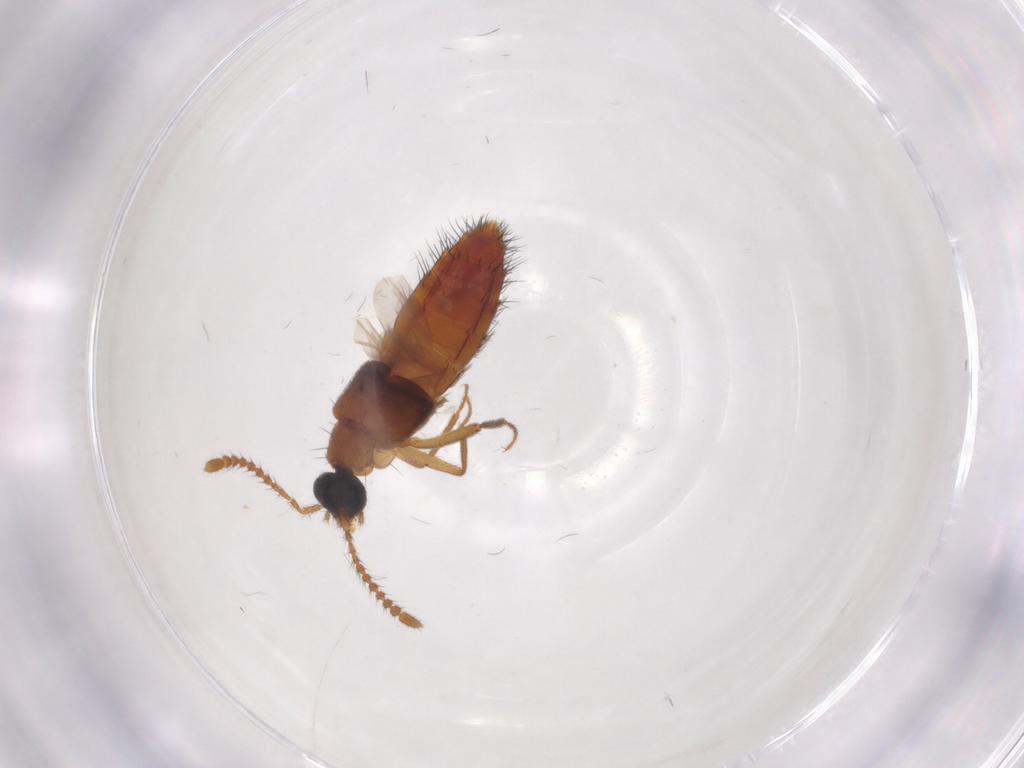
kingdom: Animalia
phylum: Arthropoda
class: Insecta
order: Coleoptera
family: Staphylinidae
